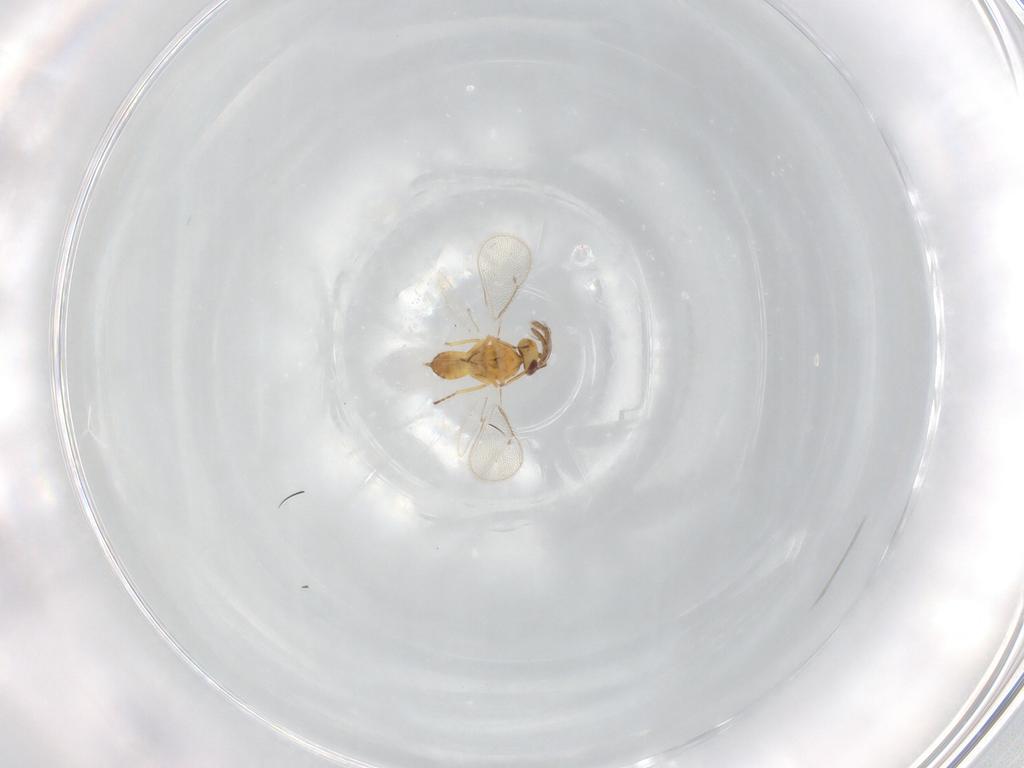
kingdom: Animalia
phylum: Arthropoda
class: Insecta
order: Hymenoptera
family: Eulophidae
